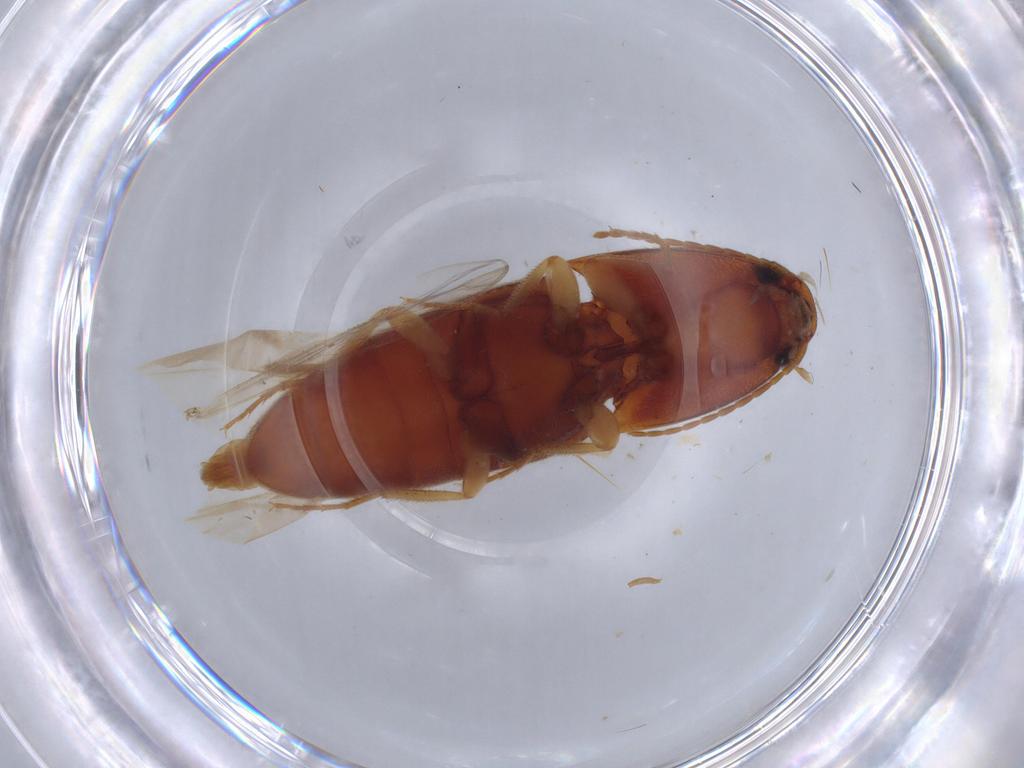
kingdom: Animalia
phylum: Arthropoda
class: Insecta
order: Coleoptera
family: Elateridae
